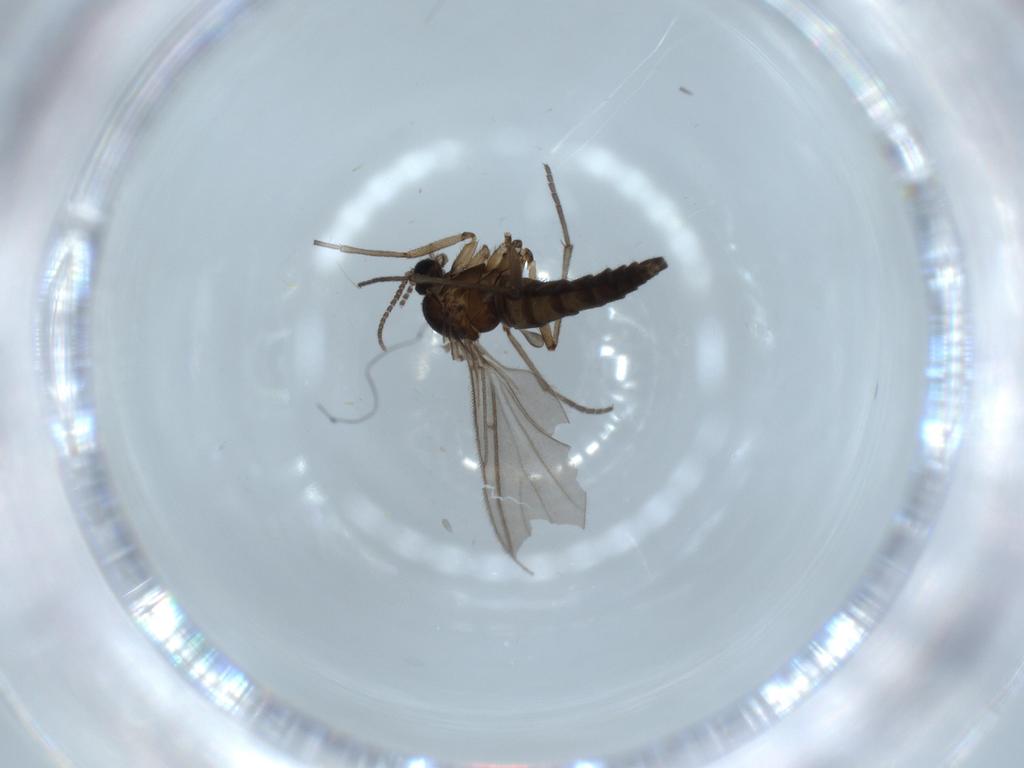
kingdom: Animalia
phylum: Arthropoda
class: Insecta
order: Diptera
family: Sciaridae
